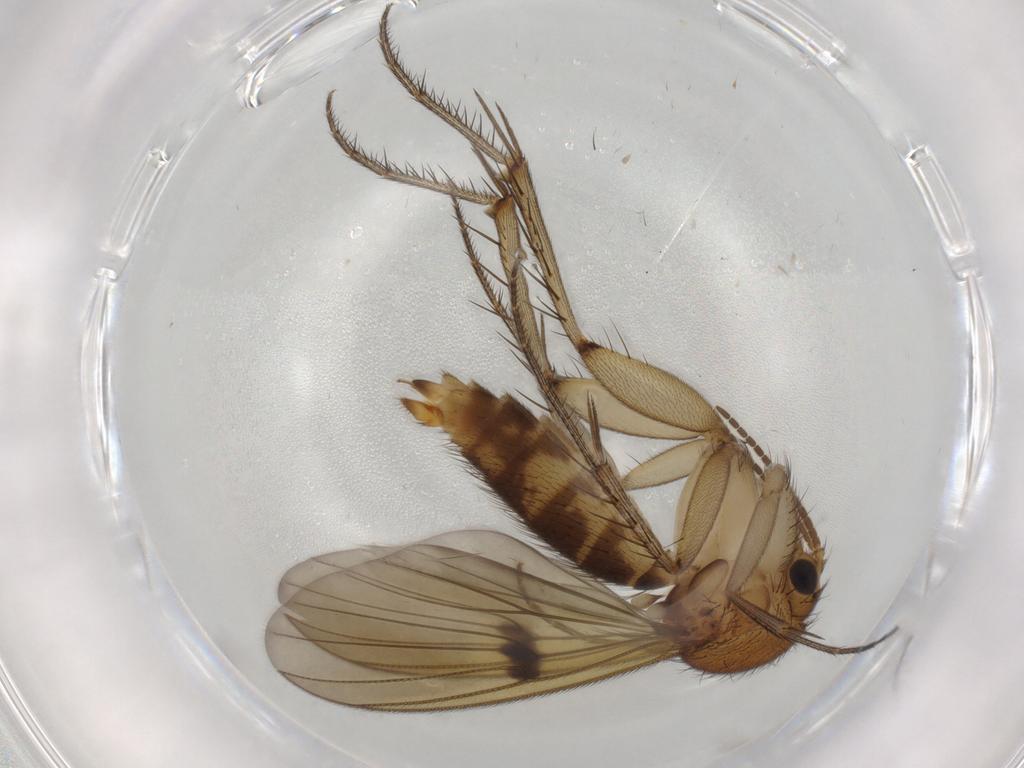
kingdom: Animalia
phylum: Arthropoda
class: Insecta
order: Diptera
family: Mycetophilidae
